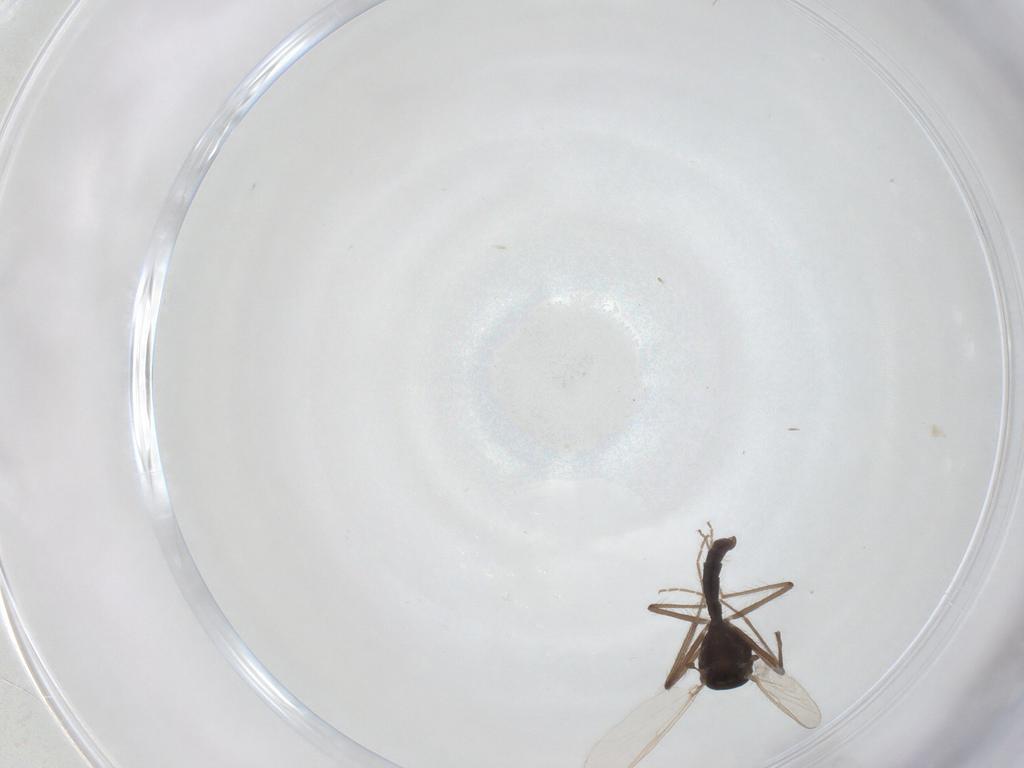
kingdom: Animalia
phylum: Arthropoda
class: Insecta
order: Diptera
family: Chironomidae
